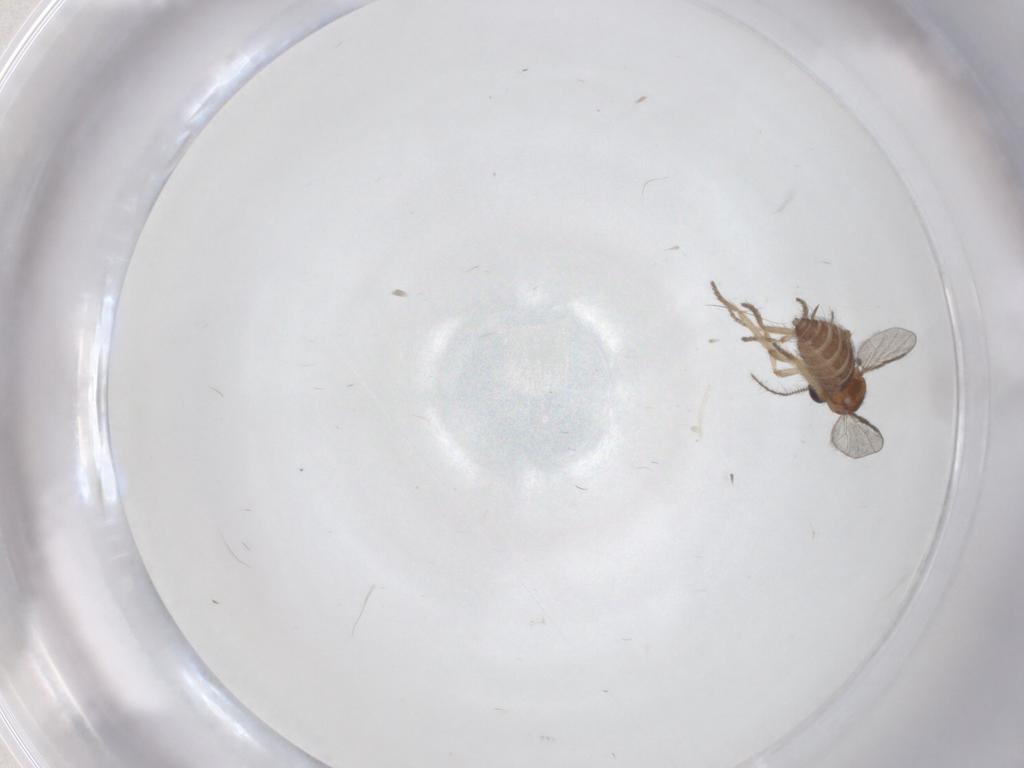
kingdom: Animalia
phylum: Arthropoda
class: Insecta
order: Diptera
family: Ceratopogonidae
